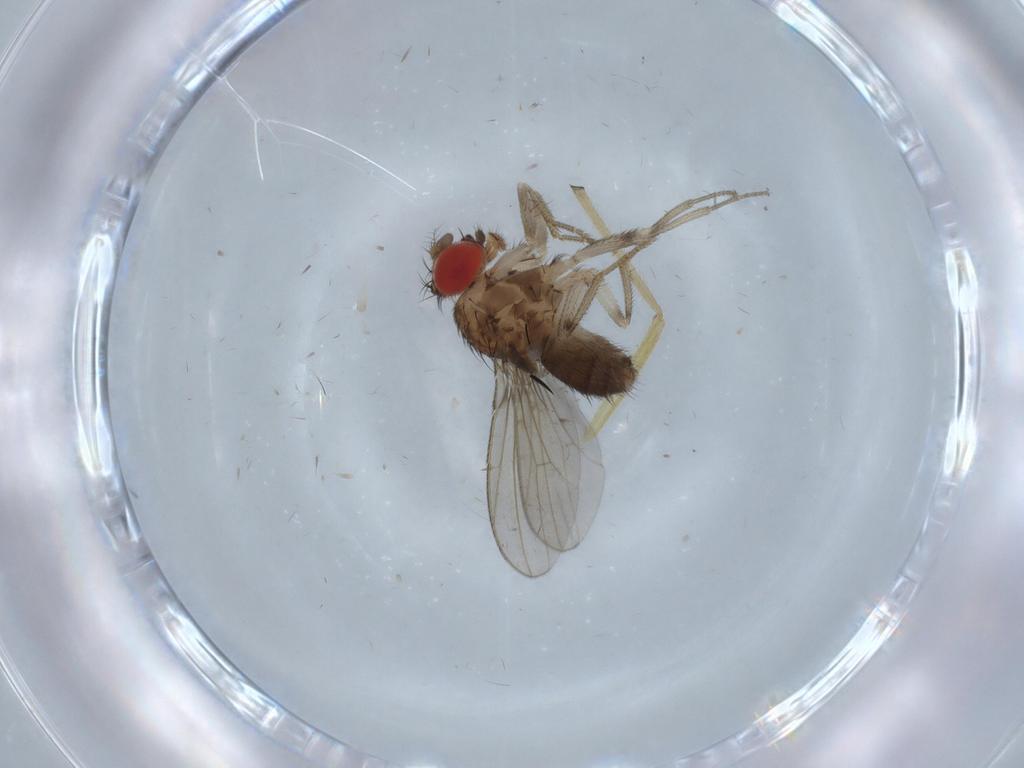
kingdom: Animalia
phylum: Arthropoda
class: Insecta
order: Diptera
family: Drosophilidae
